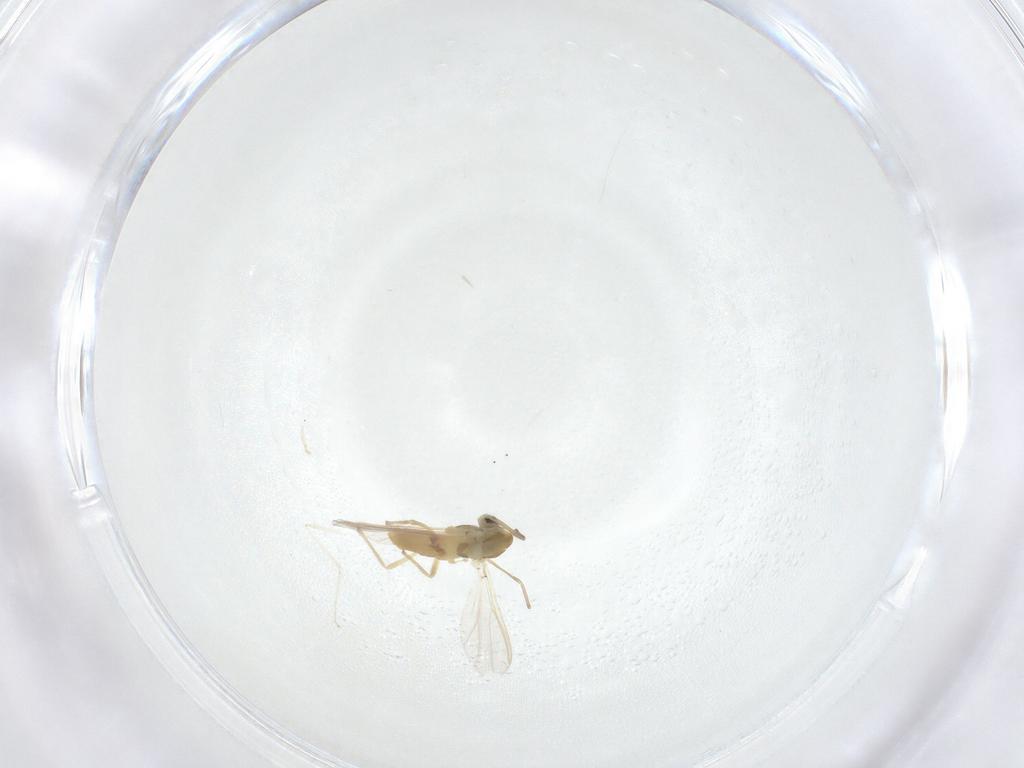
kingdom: Animalia
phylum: Arthropoda
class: Insecta
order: Diptera
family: Chironomidae
